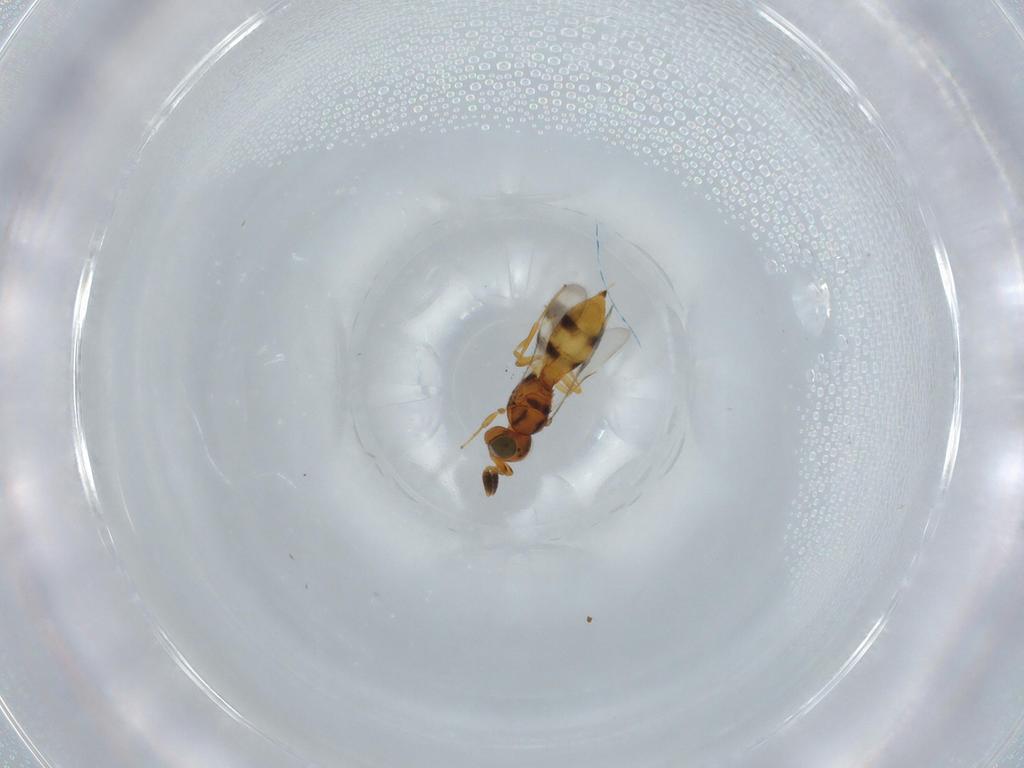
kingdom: Animalia
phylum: Arthropoda
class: Insecta
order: Hymenoptera
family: Scelionidae
